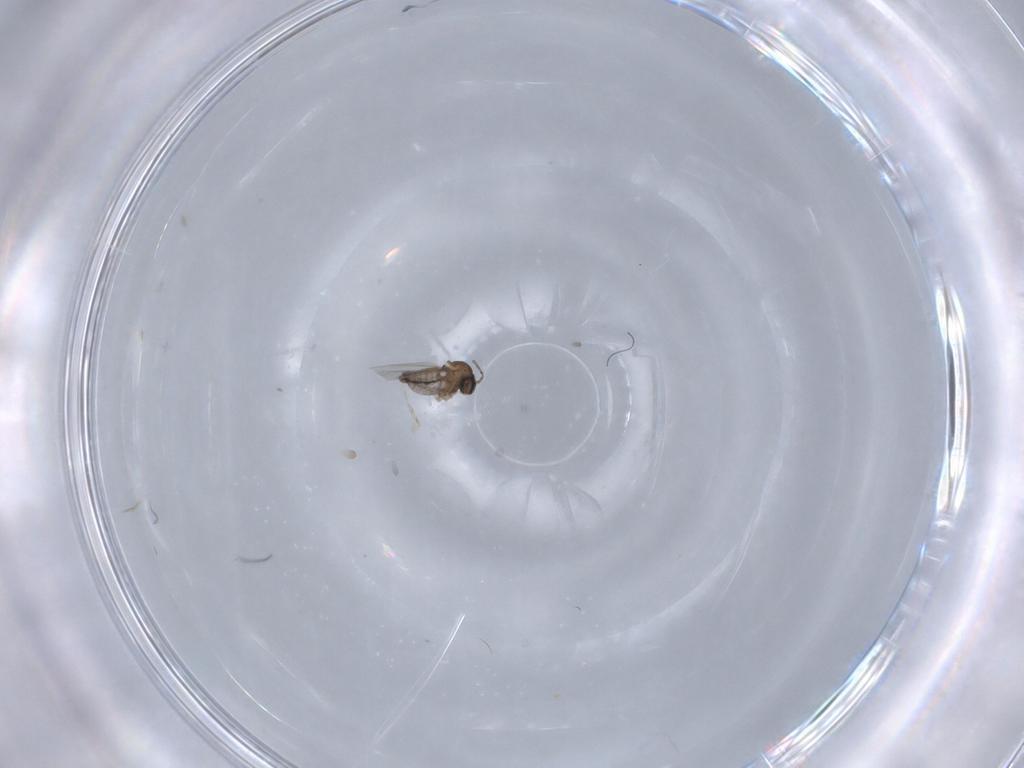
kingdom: Animalia
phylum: Arthropoda
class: Insecta
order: Diptera
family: Cecidomyiidae
